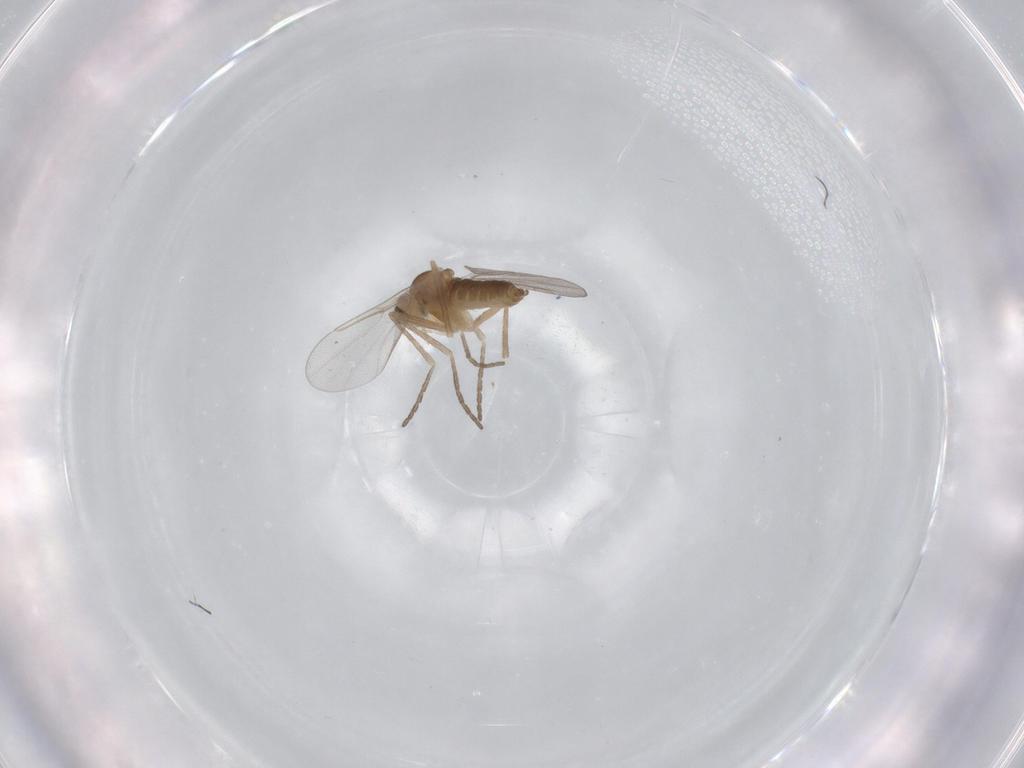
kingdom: Animalia
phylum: Arthropoda
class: Insecta
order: Diptera
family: Cecidomyiidae
